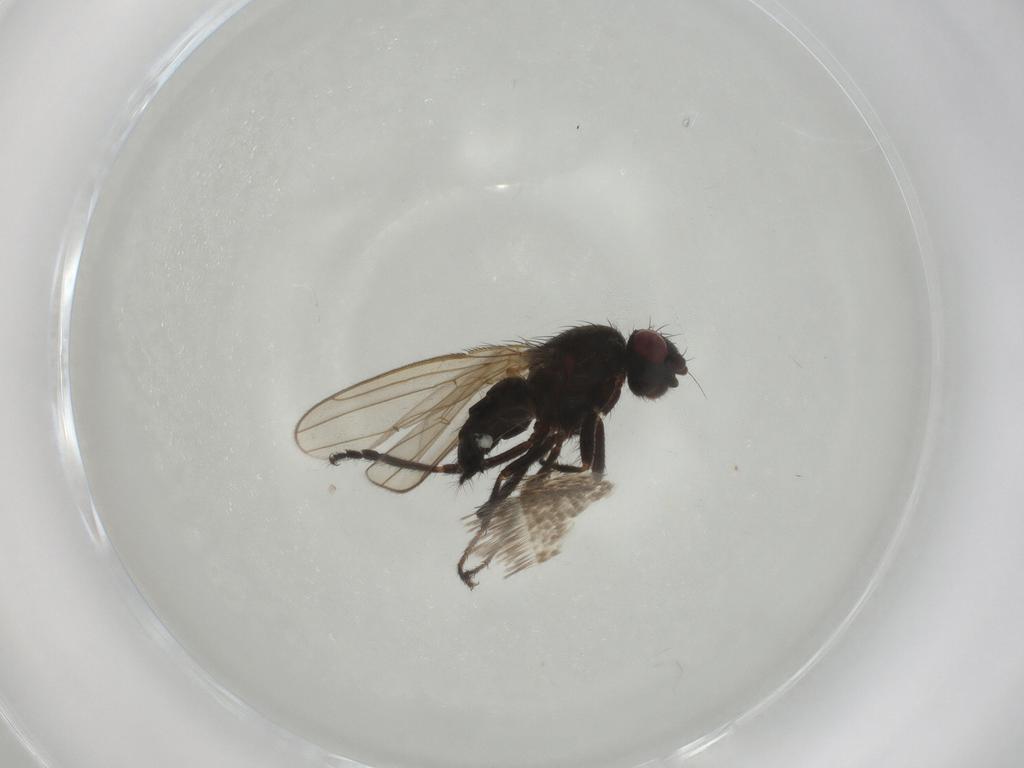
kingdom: Animalia
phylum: Arthropoda
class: Insecta
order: Diptera
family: Sphaeroceridae
